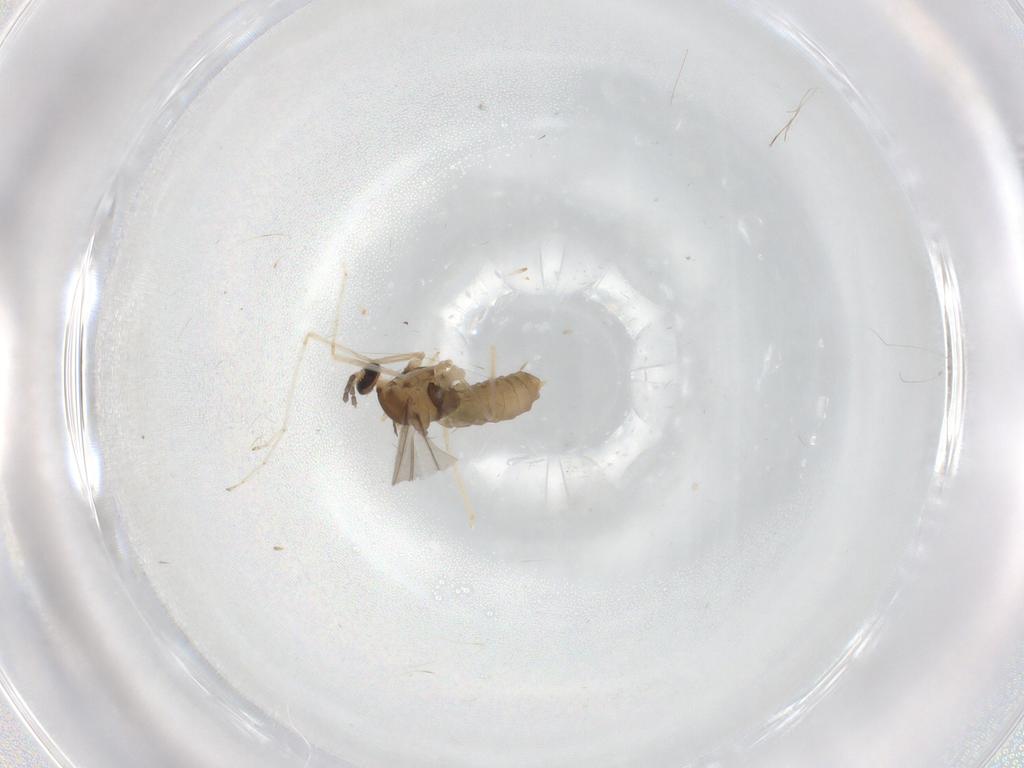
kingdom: Animalia
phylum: Arthropoda
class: Insecta
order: Diptera
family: Cecidomyiidae
